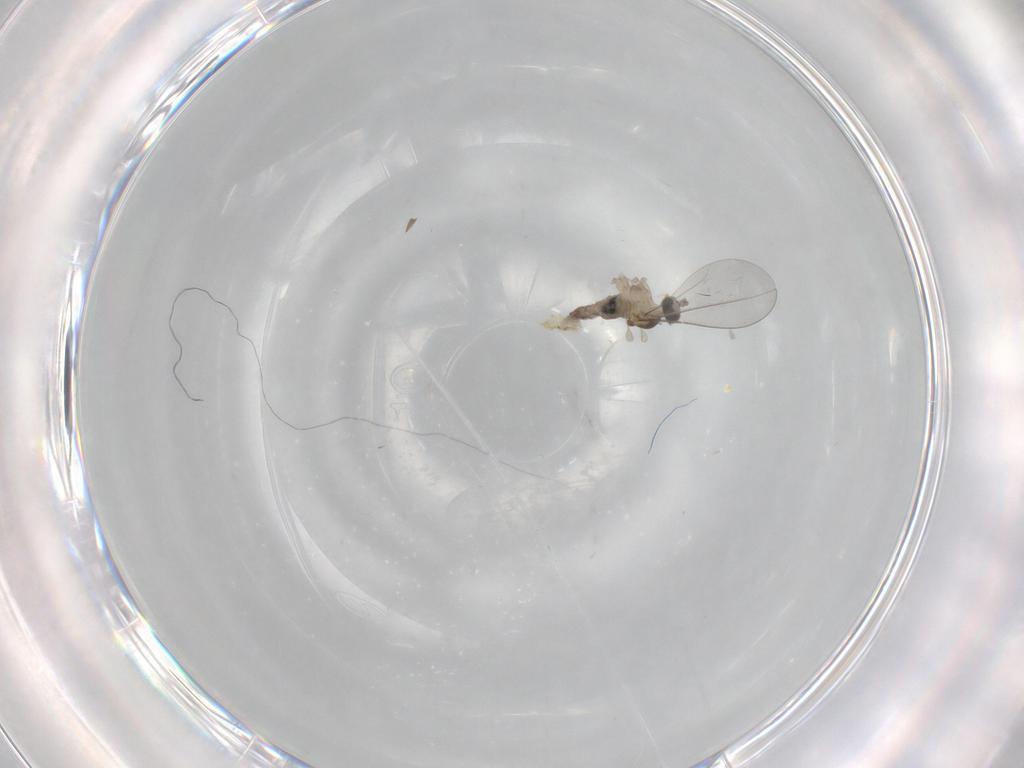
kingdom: Animalia
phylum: Arthropoda
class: Insecta
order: Diptera
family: Cecidomyiidae
